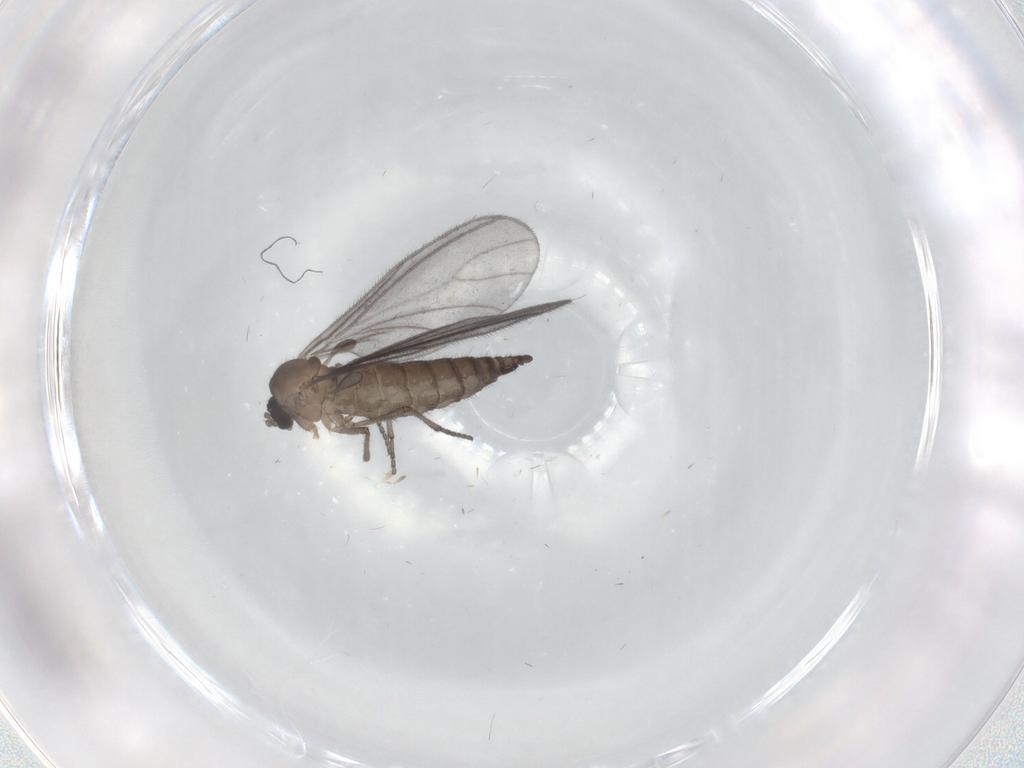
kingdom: Animalia
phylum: Arthropoda
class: Insecta
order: Diptera
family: Sciaridae
